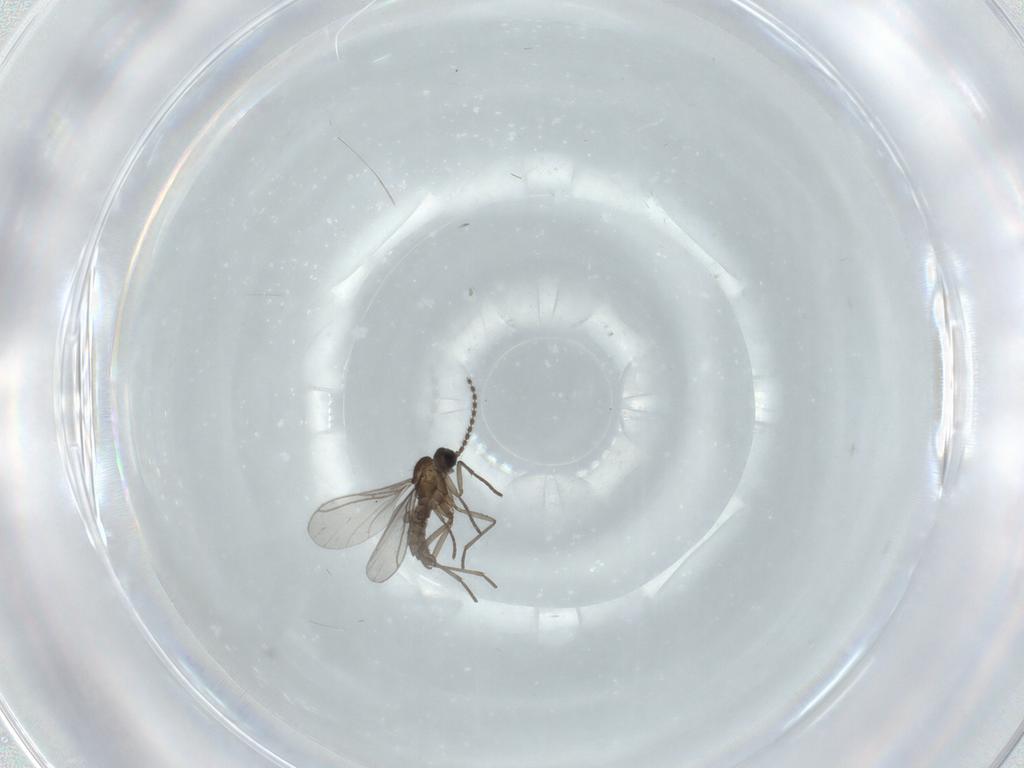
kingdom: Animalia
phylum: Arthropoda
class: Insecta
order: Diptera
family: Sciaridae
